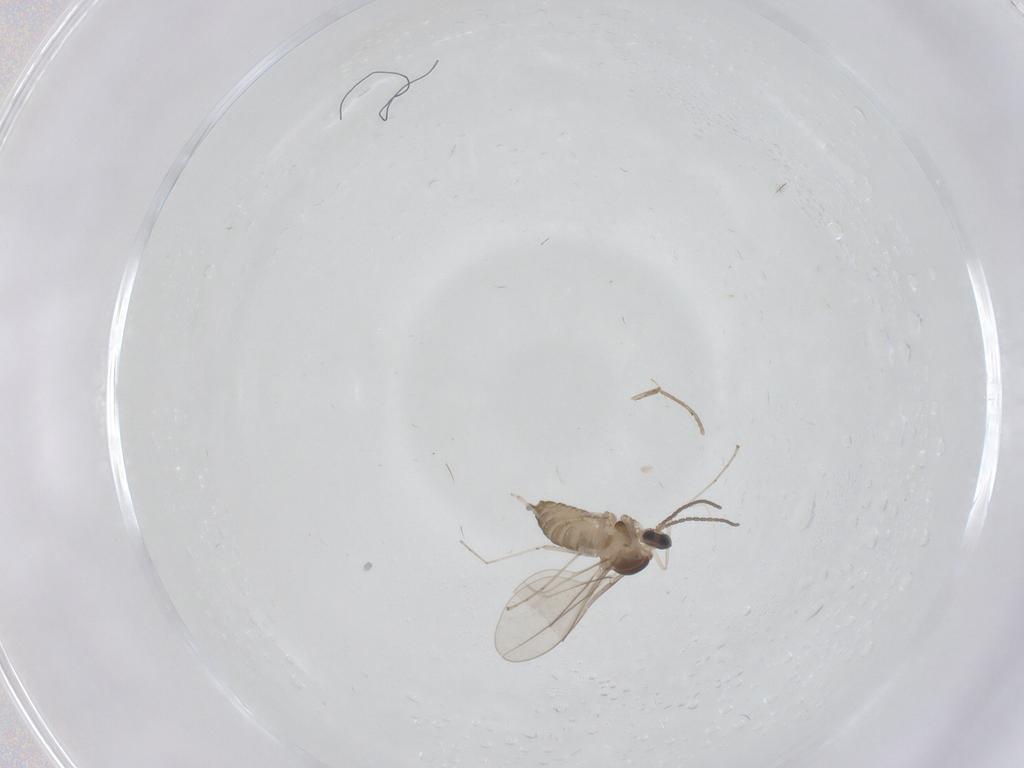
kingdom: Animalia
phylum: Arthropoda
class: Insecta
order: Diptera
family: Cecidomyiidae
